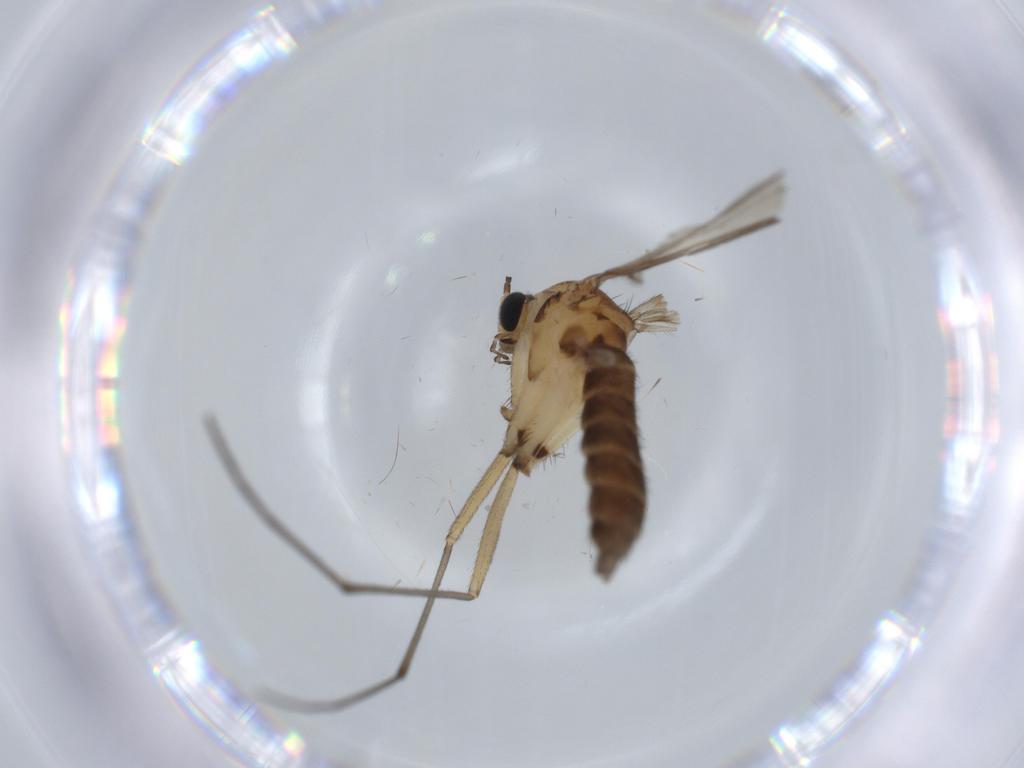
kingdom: Animalia
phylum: Arthropoda
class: Insecta
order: Diptera
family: Sciaridae
